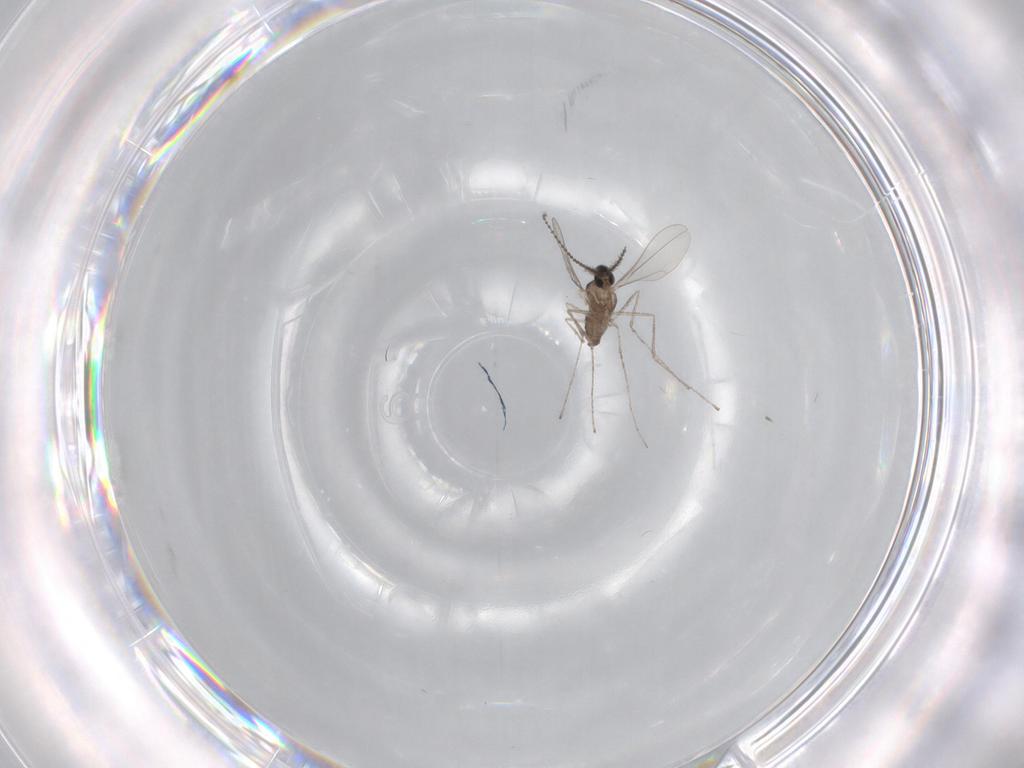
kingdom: Animalia
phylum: Arthropoda
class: Insecta
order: Diptera
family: Cecidomyiidae
